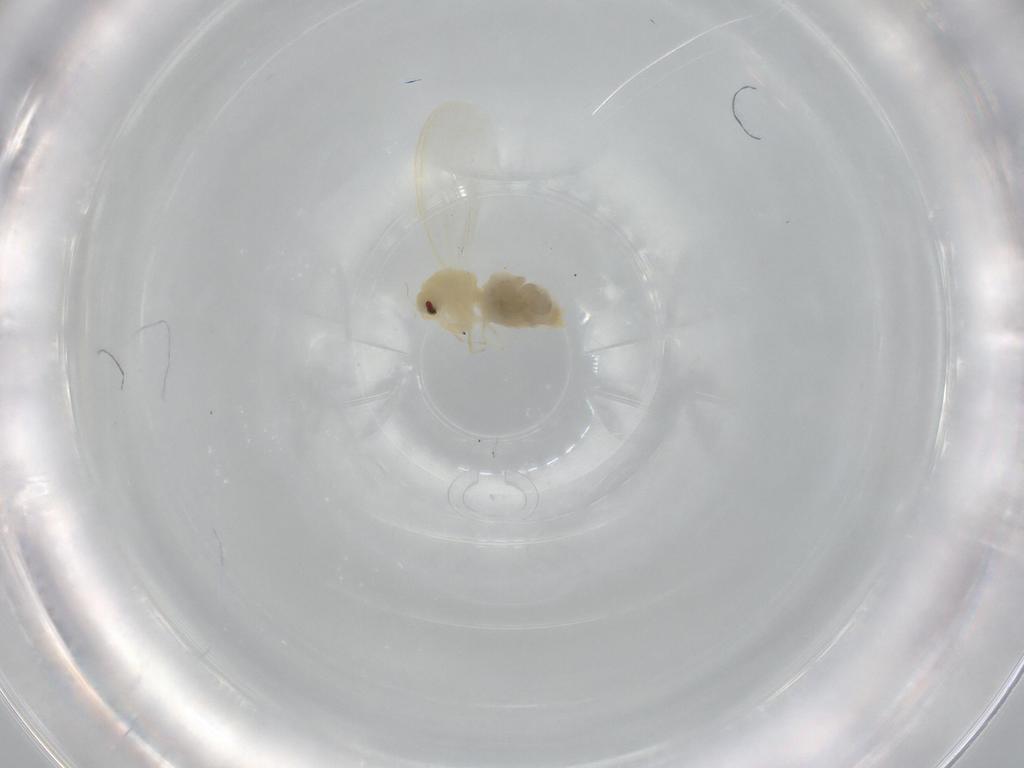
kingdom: Animalia
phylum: Arthropoda
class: Insecta
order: Hemiptera
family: Aleyrodidae
